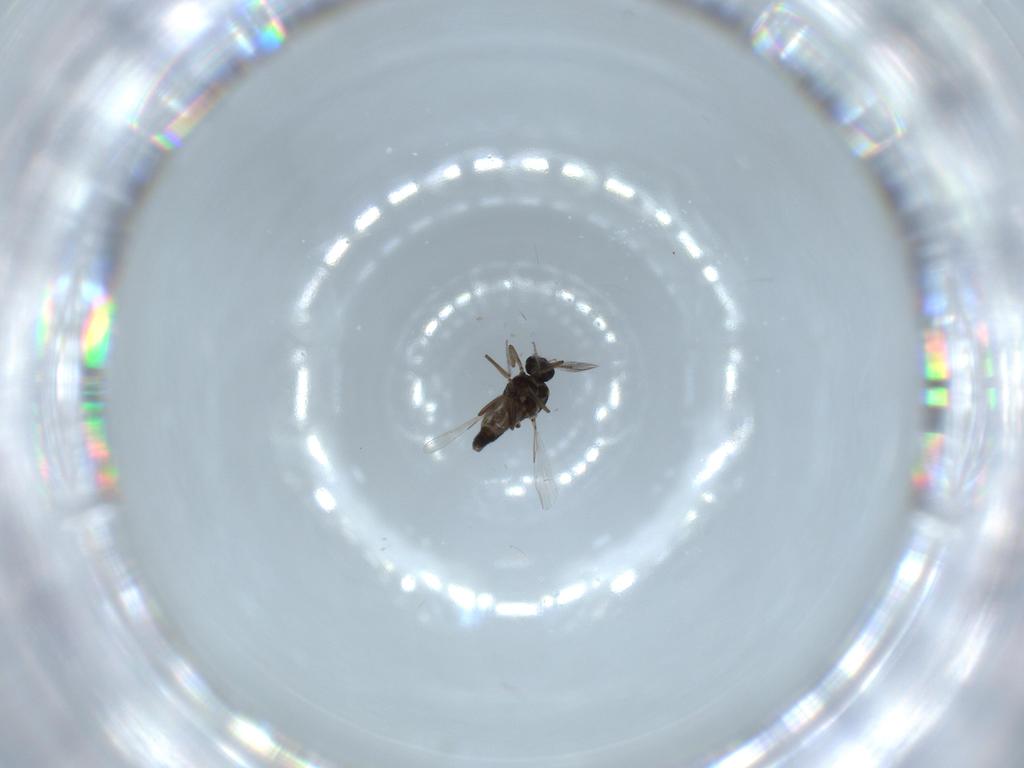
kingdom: Animalia
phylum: Arthropoda
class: Insecta
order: Diptera
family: Ceratopogonidae
